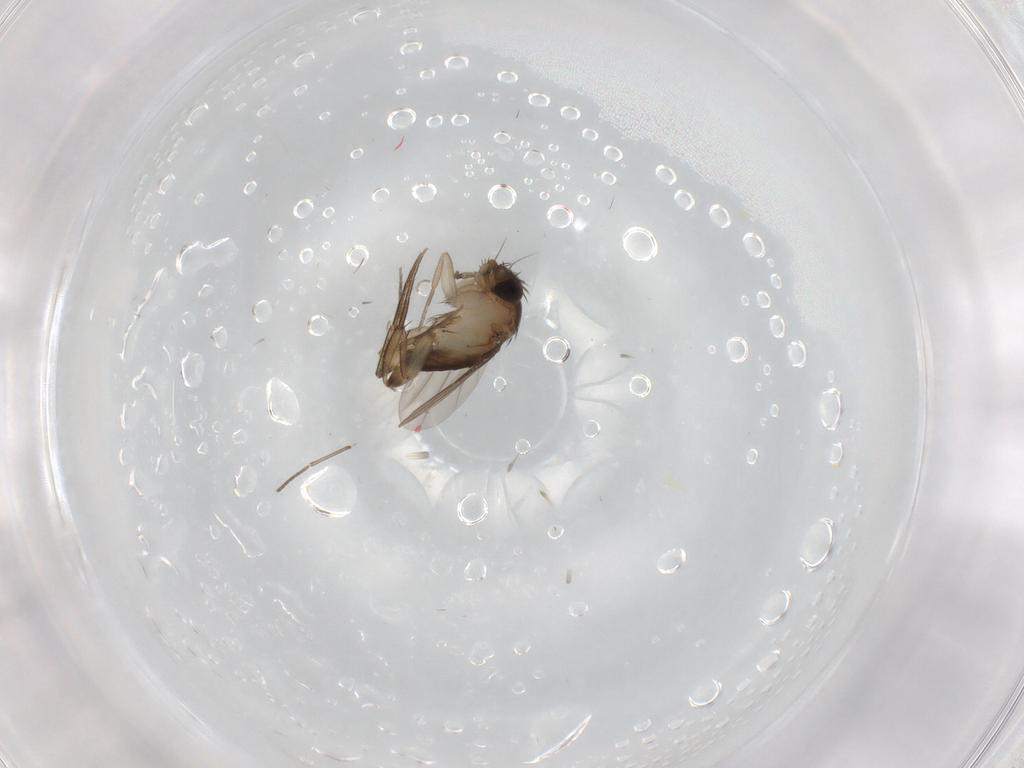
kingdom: Animalia
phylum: Arthropoda
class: Insecta
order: Diptera
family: Phoridae
